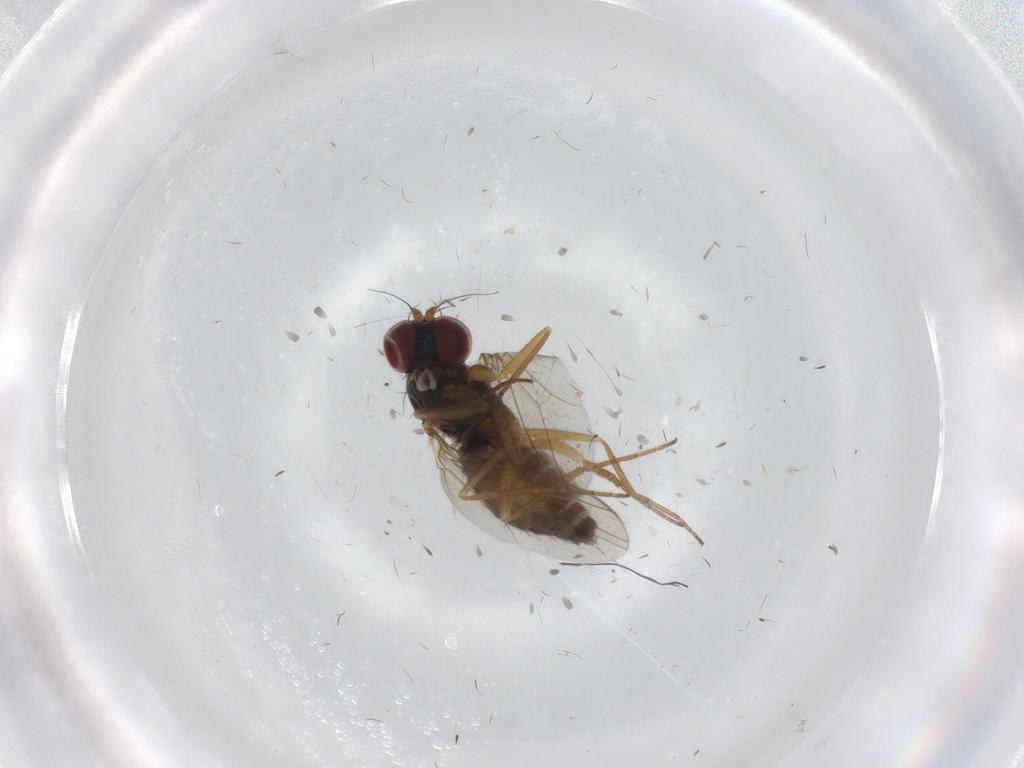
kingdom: Animalia
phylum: Arthropoda
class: Insecta
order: Diptera
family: Dolichopodidae
